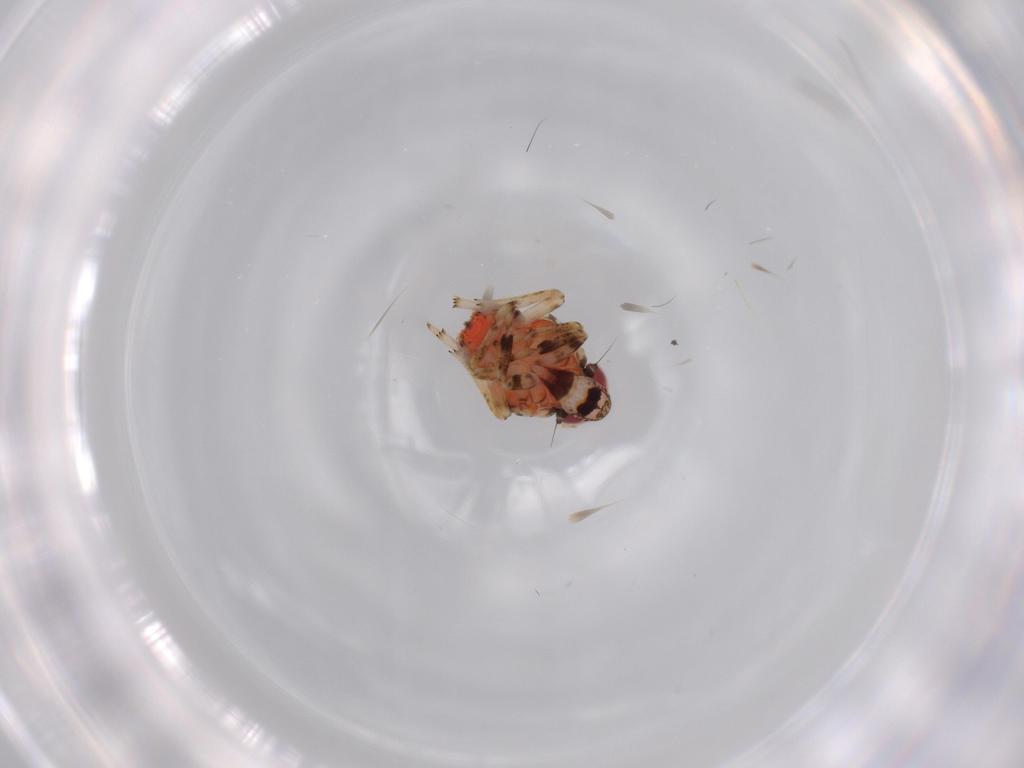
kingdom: Animalia
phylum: Arthropoda
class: Insecta
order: Hemiptera
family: Issidae
